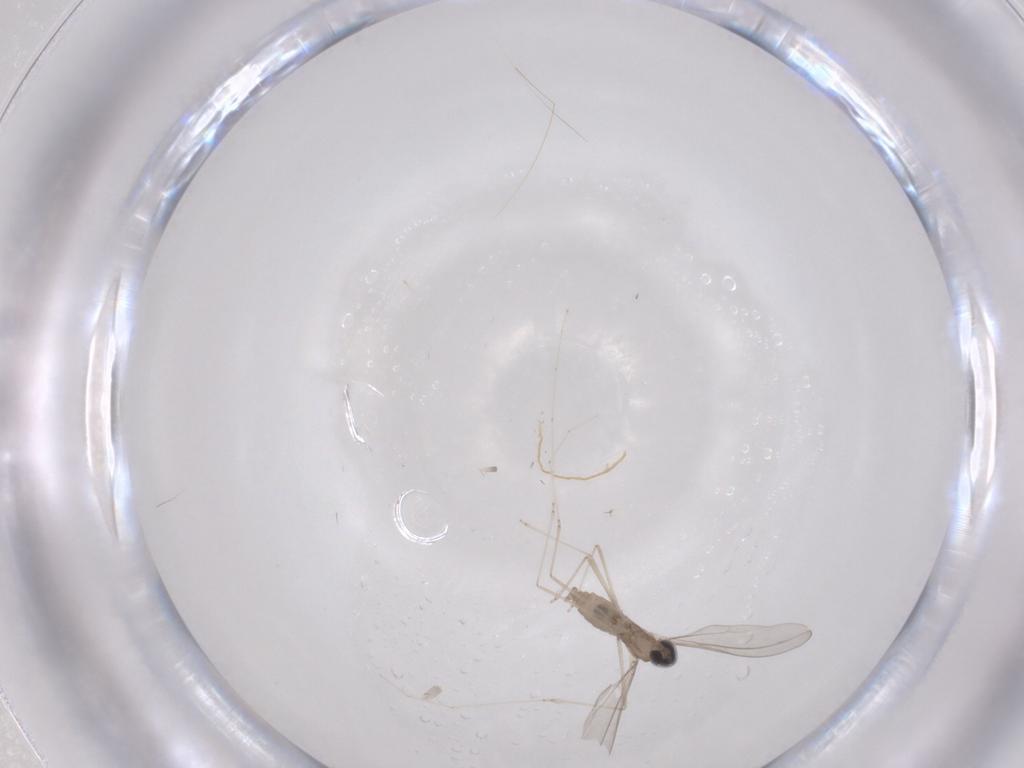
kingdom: Animalia
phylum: Arthropoda
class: Insecta
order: Diptera
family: Cecidomyiidae
